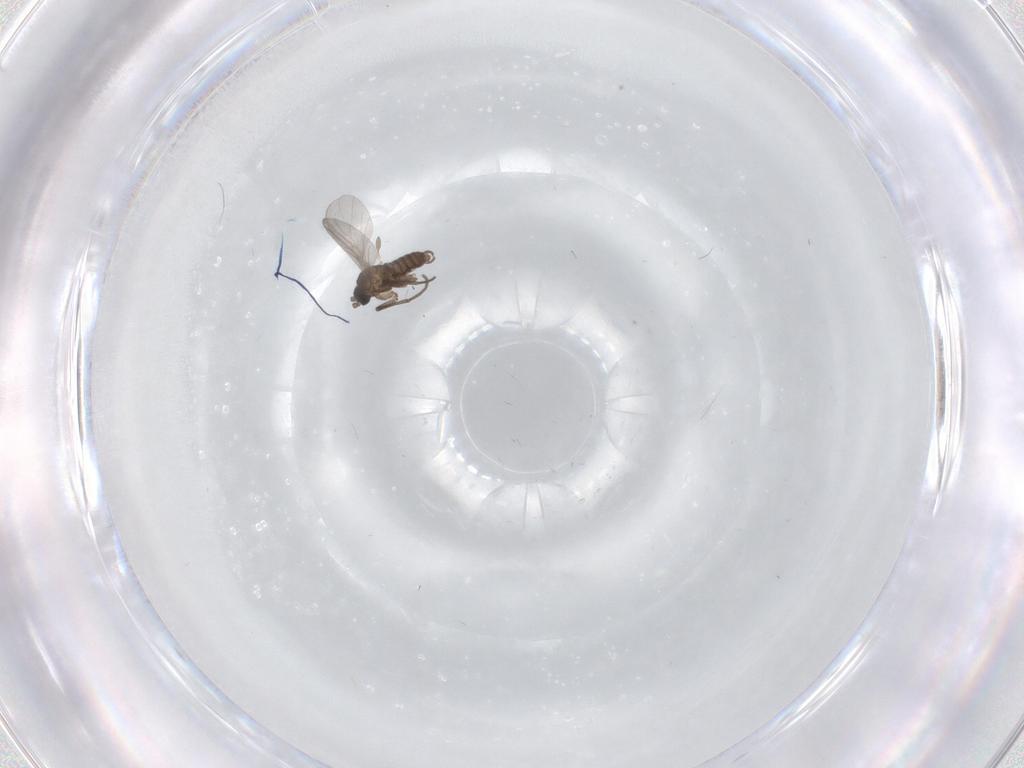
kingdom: Animalia
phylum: Arthropoda
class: Insecta
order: Diptera
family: Sciaridae
